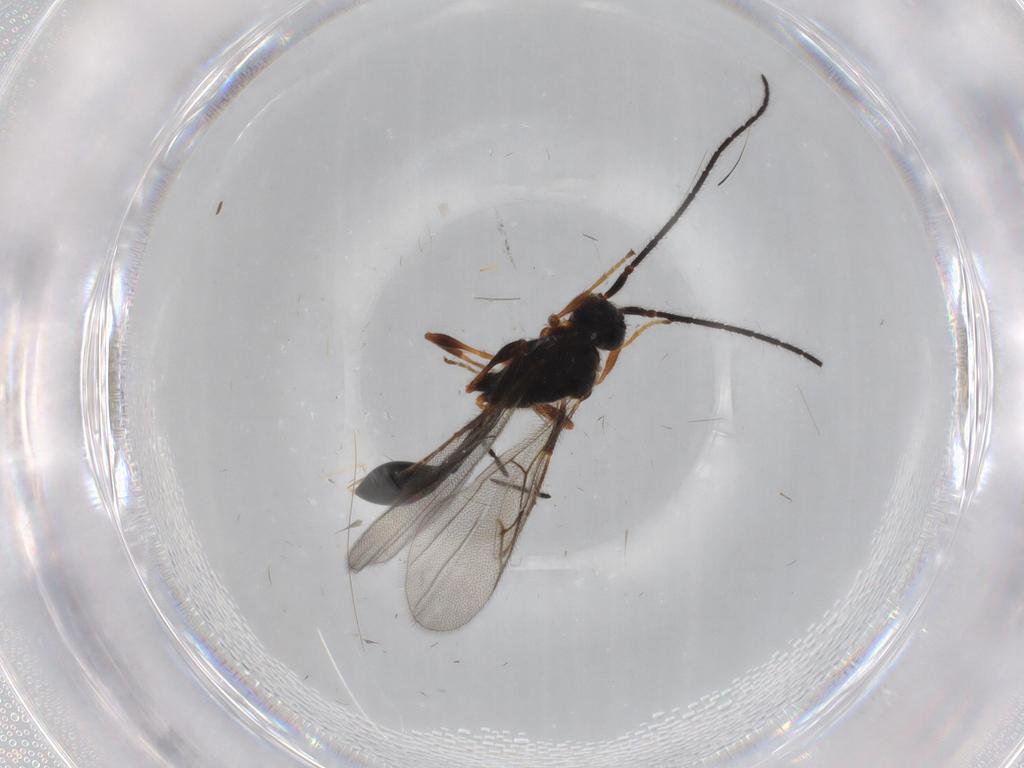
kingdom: Animalia
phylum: Arthropoda
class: Insecta
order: Hymenoptera
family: Diapriidae
